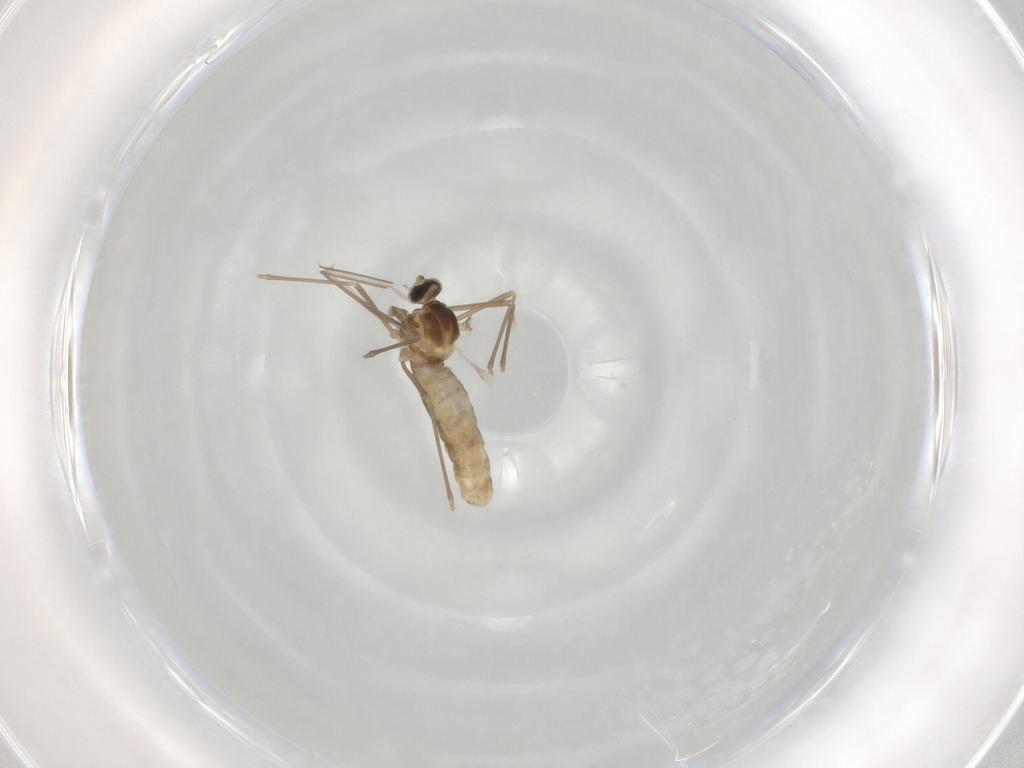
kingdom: Animalia
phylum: Arthropoda
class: Insecta
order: Diptera
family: Cecidomyiidae
